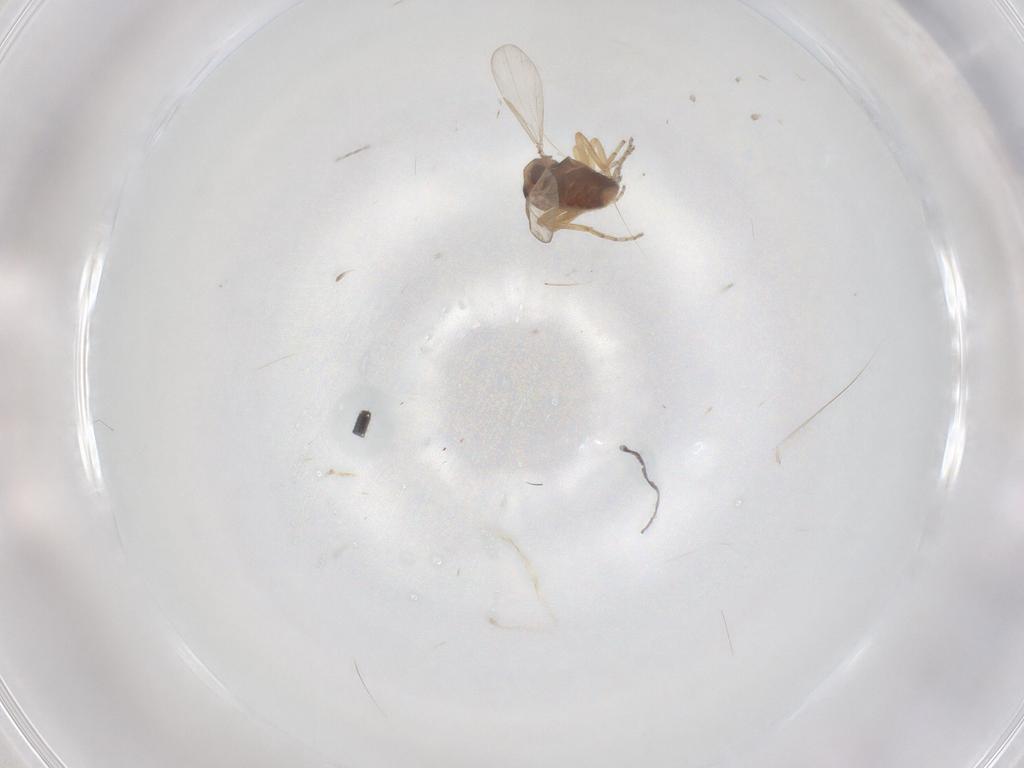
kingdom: Animalia
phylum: Arthropoda
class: Insecta
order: Diptera
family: Ceratopogonidae
